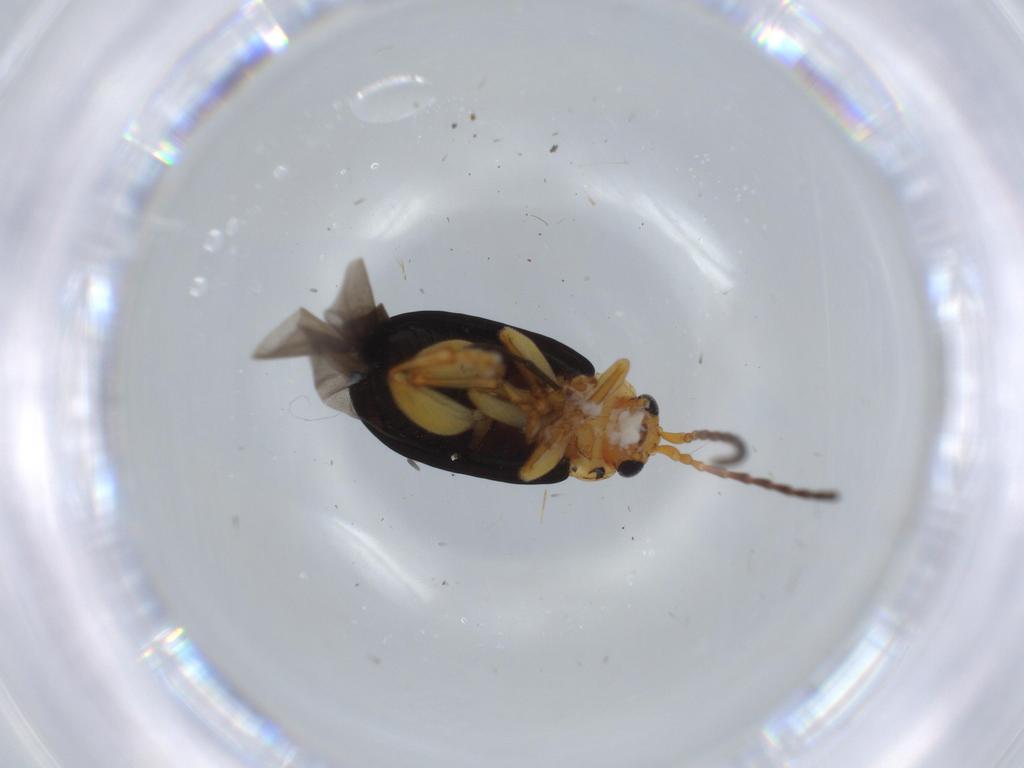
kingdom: Animalia
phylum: Arthropoda
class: Insecta
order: Coleoptera
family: Chrysomelidae
